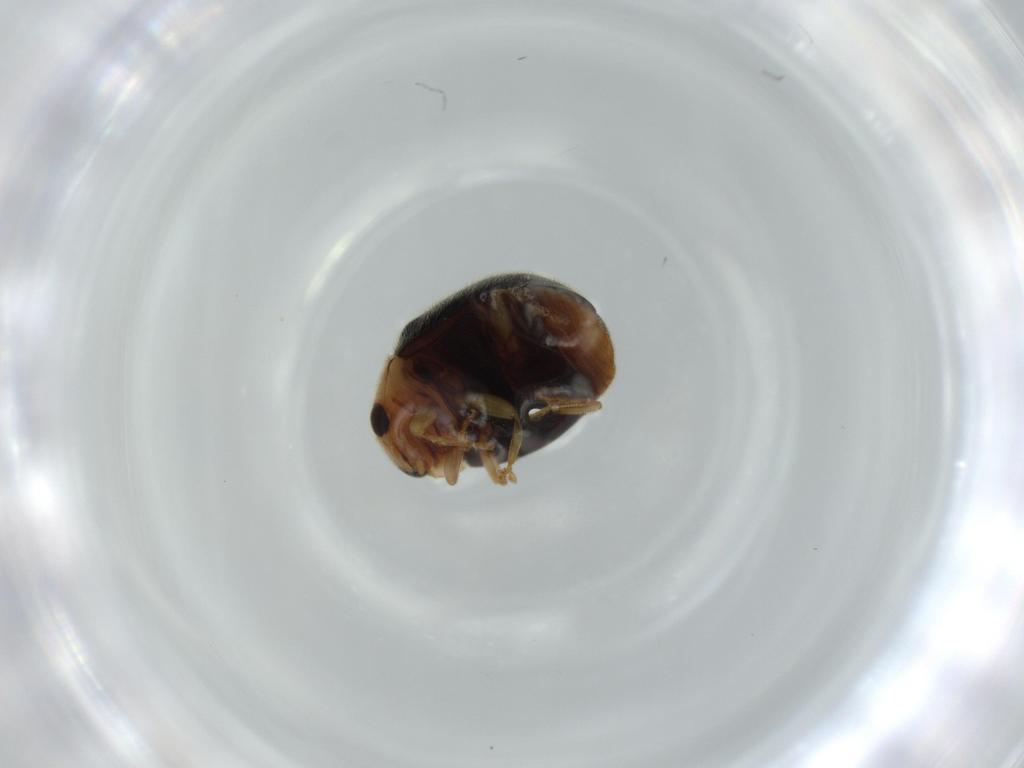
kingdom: Animalia
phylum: Arthropoda
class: Insecta
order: Coleoptera
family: Coccinellidae
